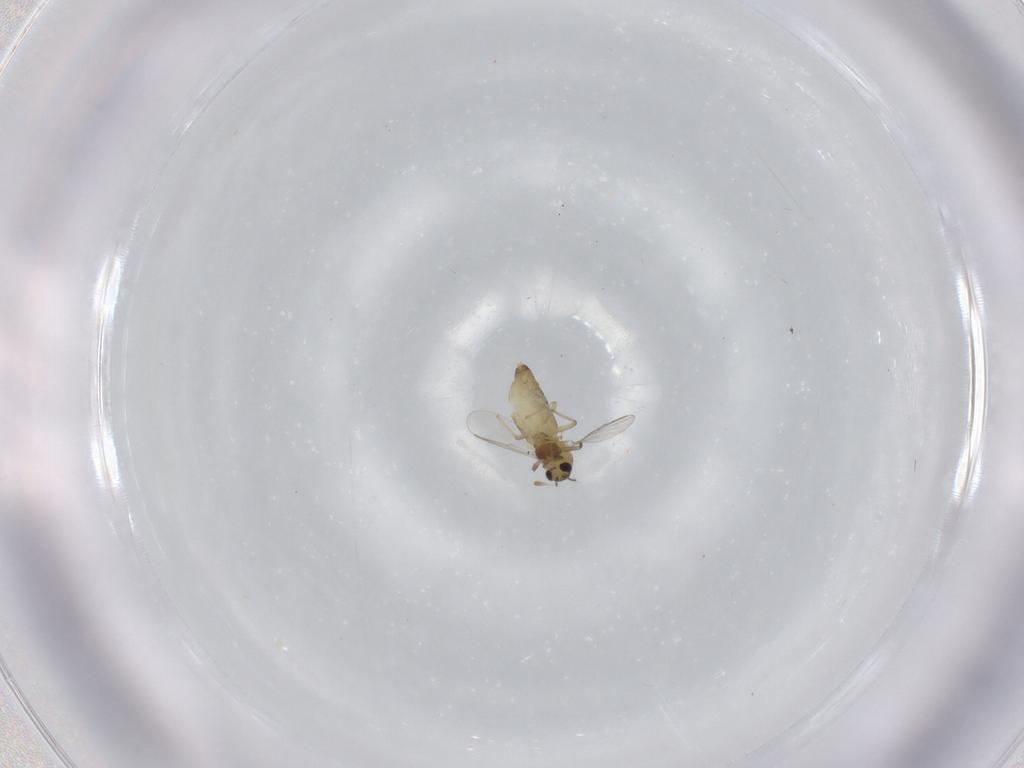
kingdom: Animalia
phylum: Arthropoda
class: Insecta
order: Diptera
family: Chironomidae
